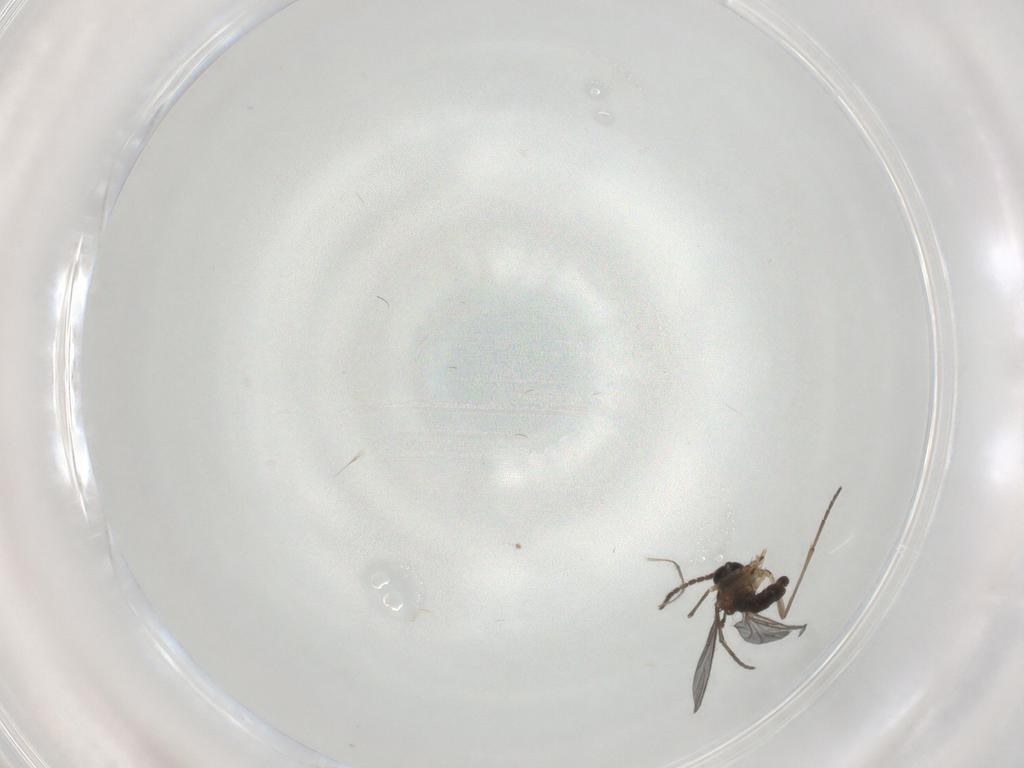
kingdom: Animalia
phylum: Arthropoda
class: Insecta
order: Diptera
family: Sciaridae
